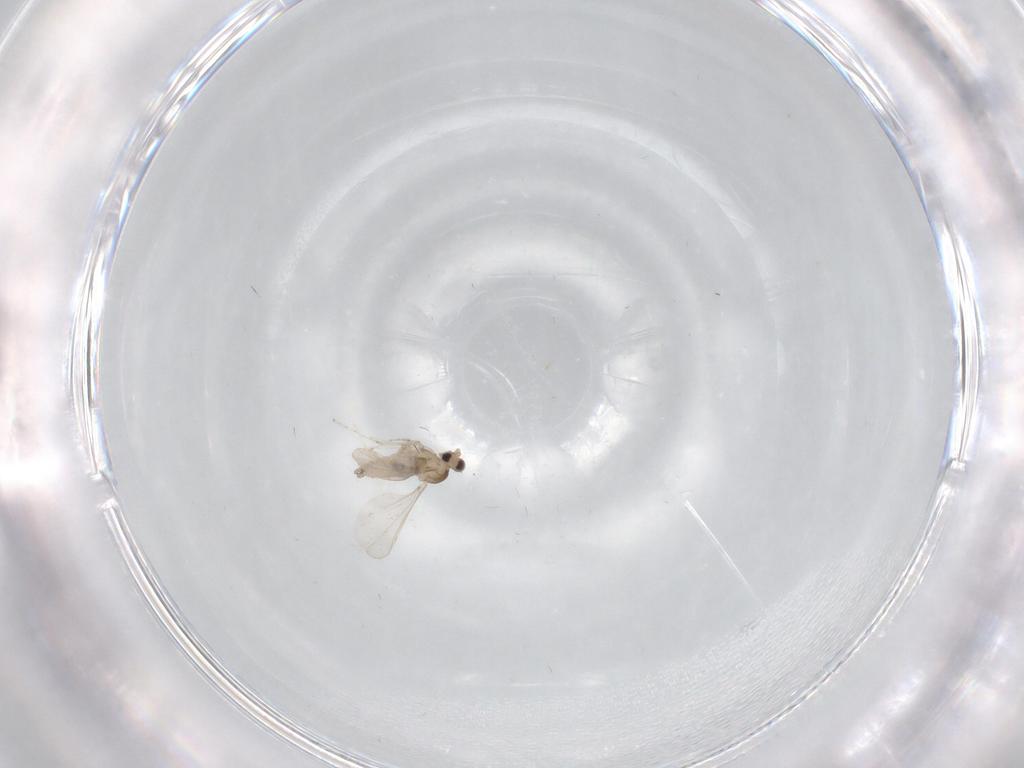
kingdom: Animalia
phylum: Arthropoda
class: Insecta
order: Diptera
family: Cecidomyiidae
